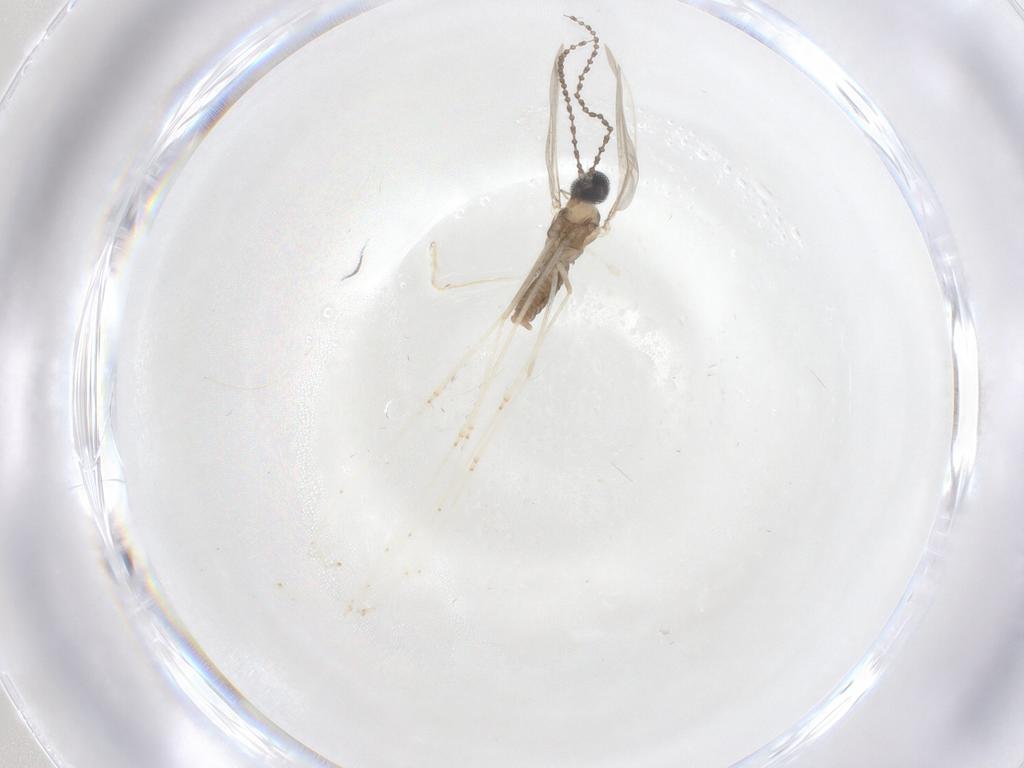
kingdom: Animalia
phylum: Arthropoda
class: Insecta
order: Diptera
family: Cecidomyiidae
